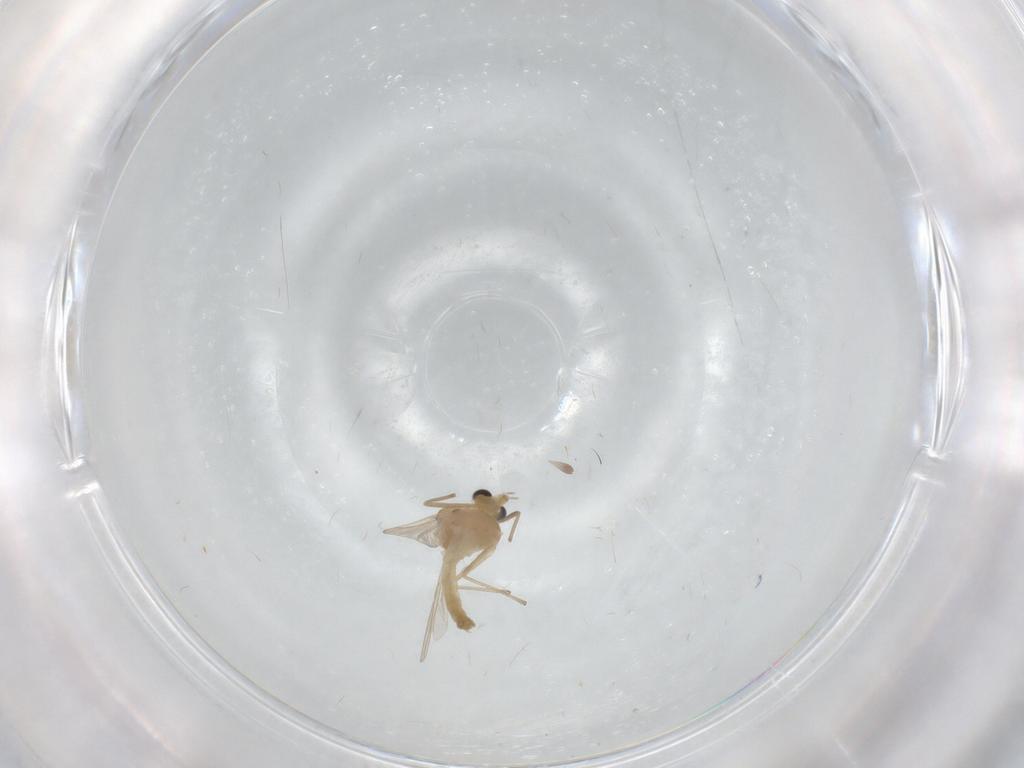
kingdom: Animalia
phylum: Arthropoda
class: Insecta
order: Diptera
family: Chironomidae
